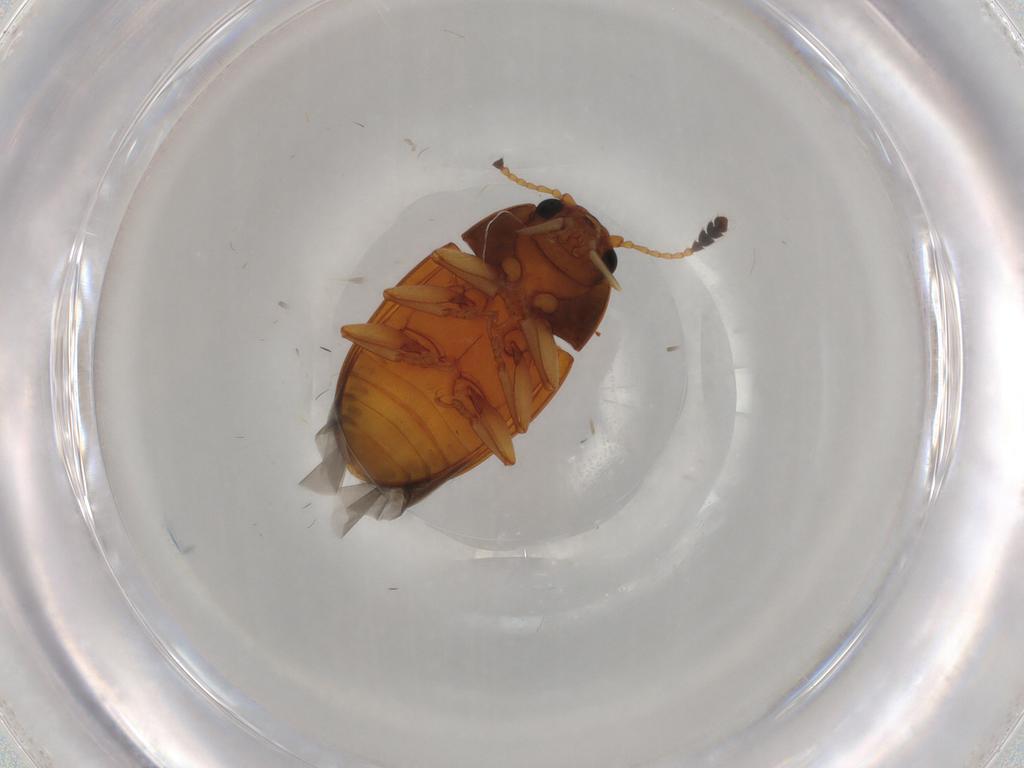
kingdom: Animalia
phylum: Arthropoda
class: Insecta
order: Coleoptera
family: Erotylidae
